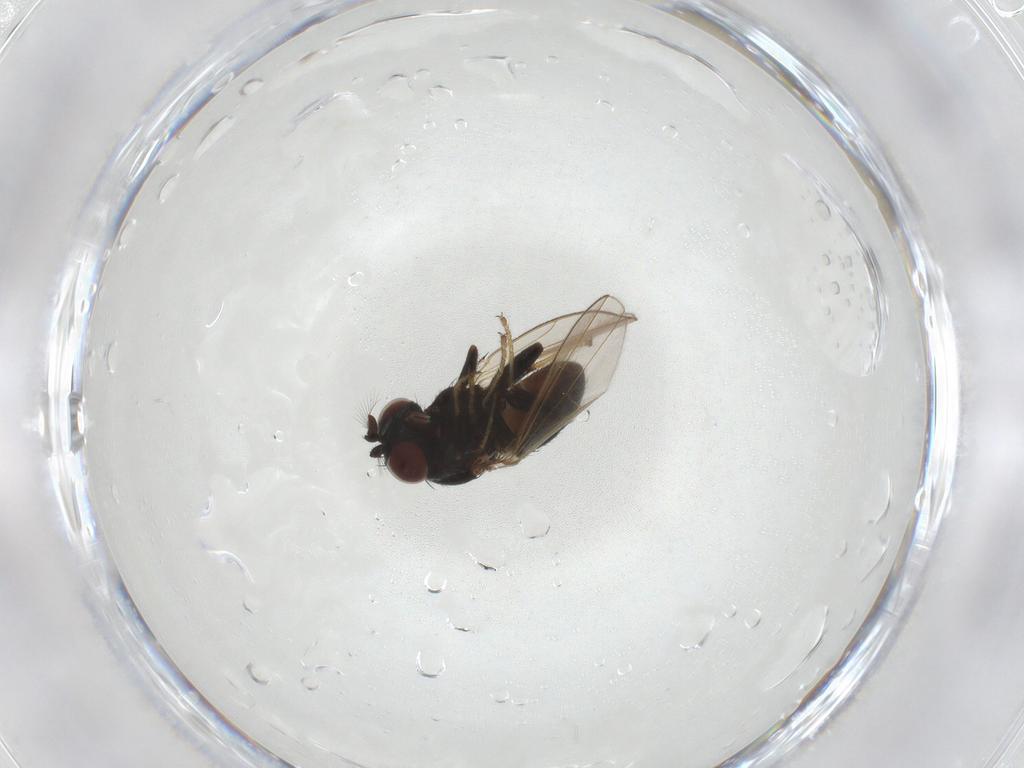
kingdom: Animalia
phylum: Arthropoda
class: Insecta
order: Diptera
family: Ephydridae
